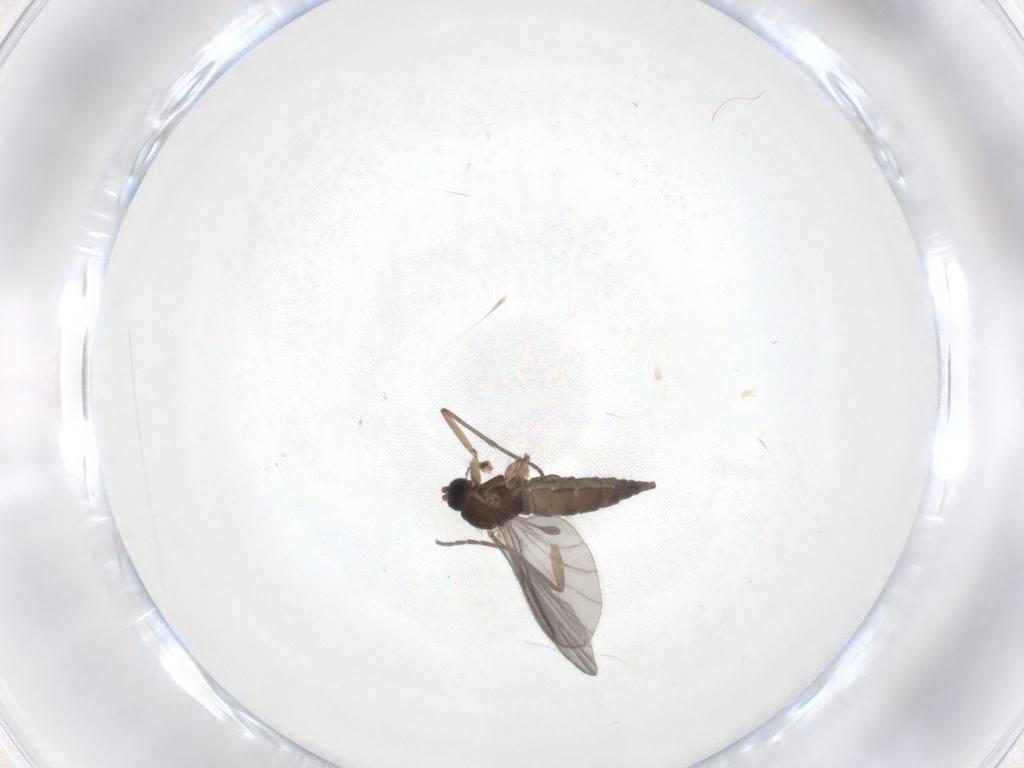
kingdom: Animalia
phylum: Arthropoda
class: Insecta
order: Diptera
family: Sciaridae
